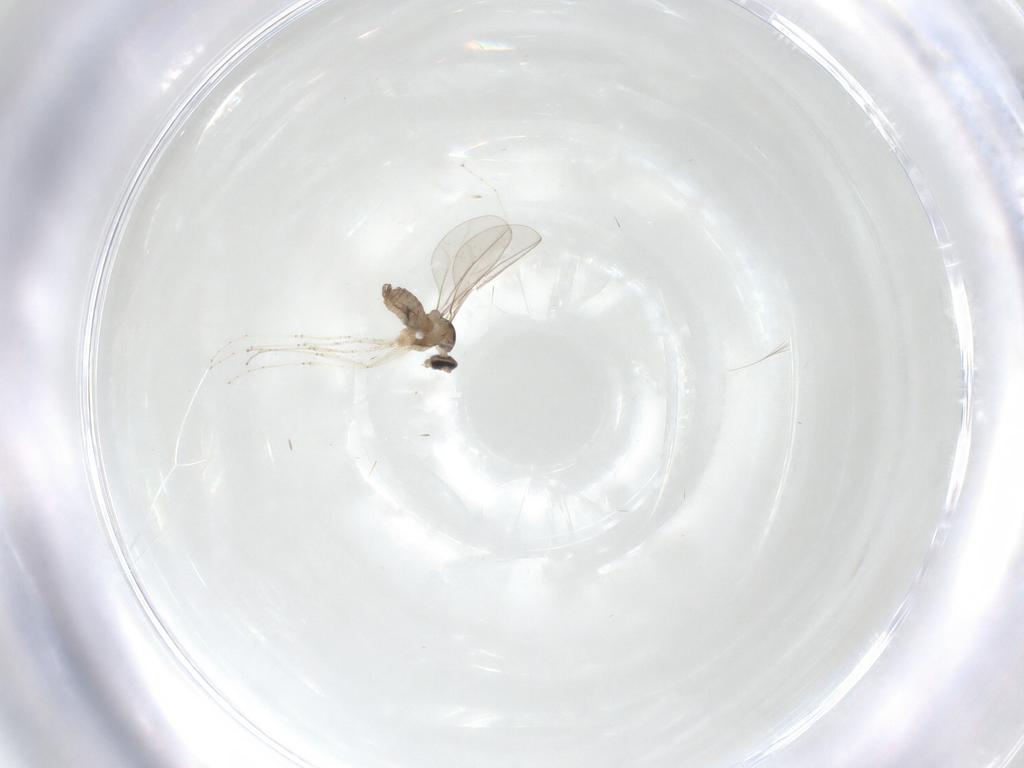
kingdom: Animalia
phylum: Arthropoda
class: Insecta
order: Diptera
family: Cecidomyiidae
